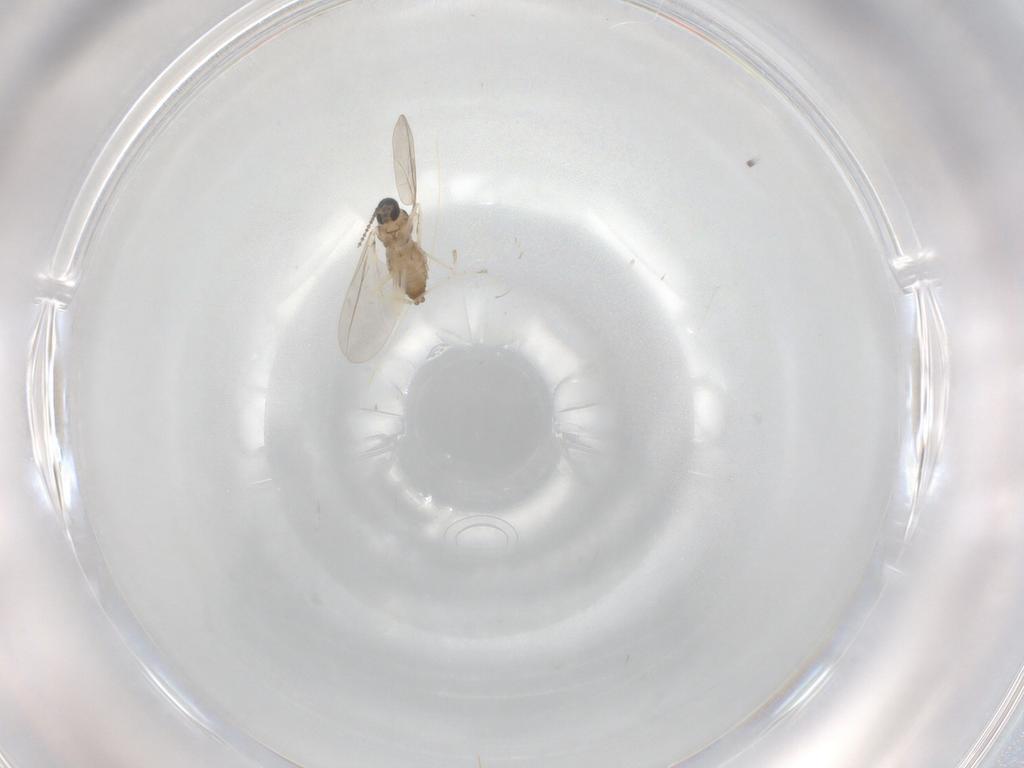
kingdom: Animalia
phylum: Arthropoda
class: Insecta
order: Diptera
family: Cecidomyiidae
